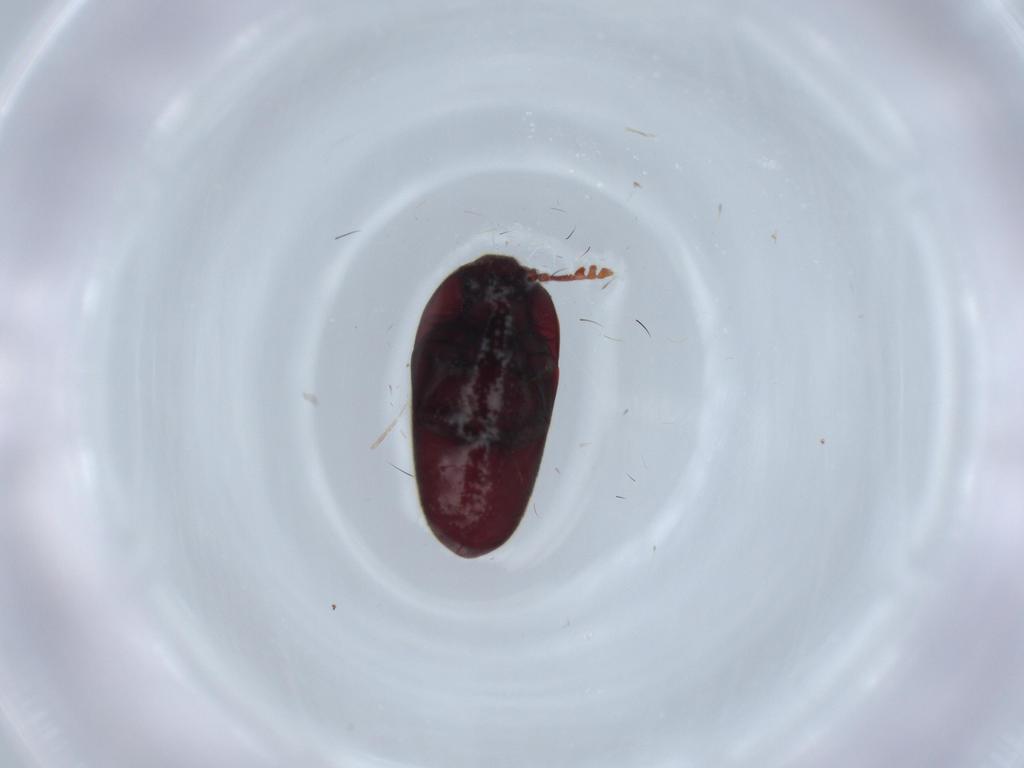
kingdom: Animalia
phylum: Arthropoda
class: Insecta
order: Coleoptera
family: Throscidae
